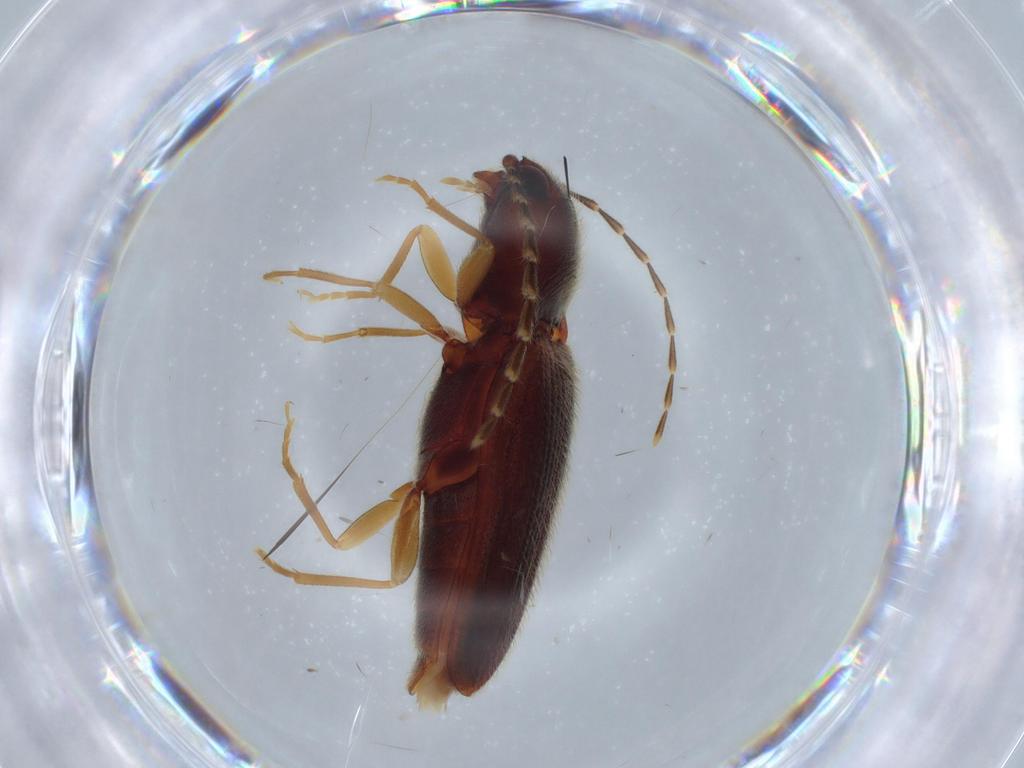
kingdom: Animalia
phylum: Arthropoda
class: Insecta
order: Coleoptera
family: Elateridae
